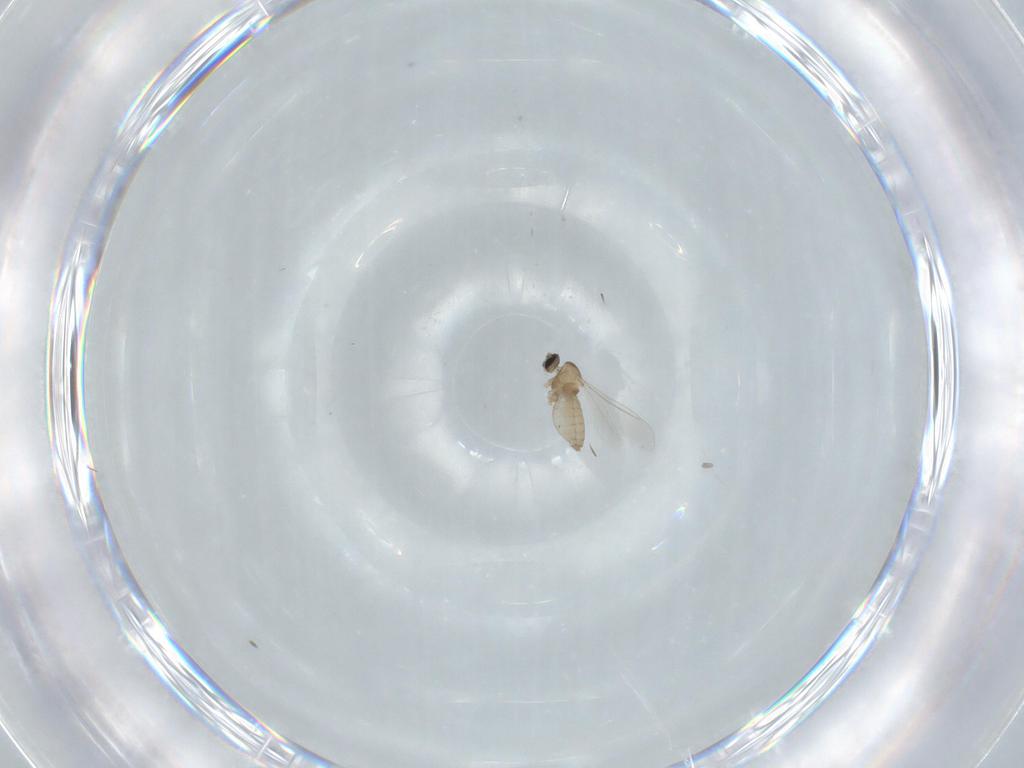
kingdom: Animalia
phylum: Arthropoda
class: Insecta
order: Diptera
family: Cecidomyiidae
